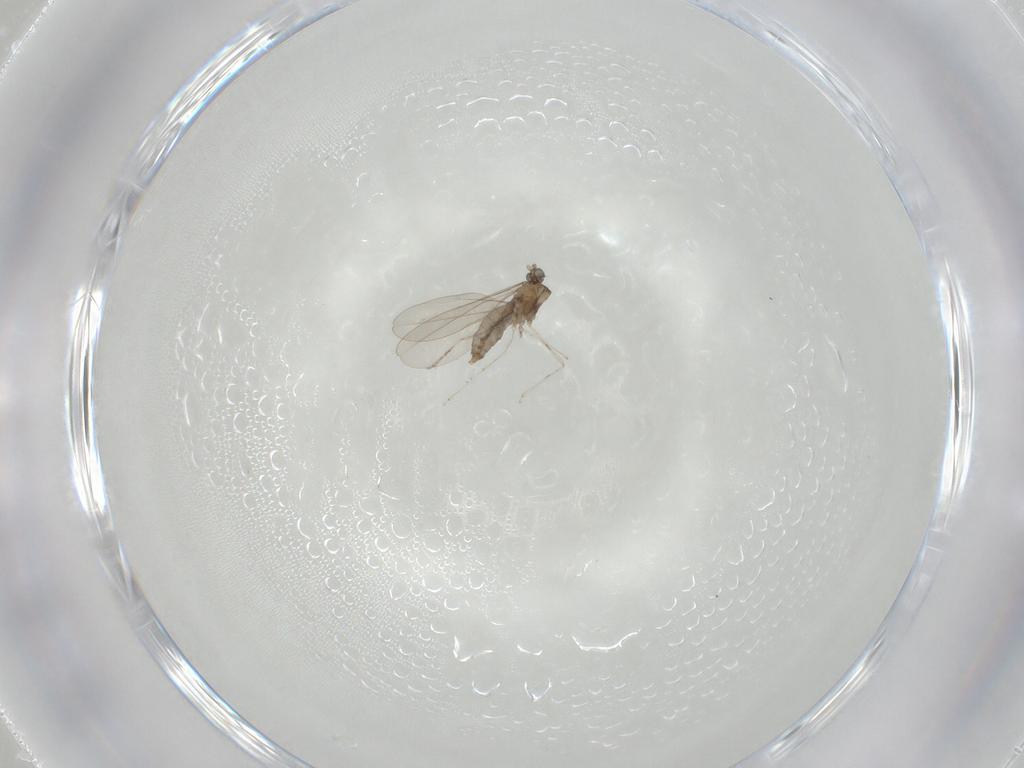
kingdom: Animalia
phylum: Arthropoda
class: Insecta
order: Diptera
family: Cecidomyiidae
